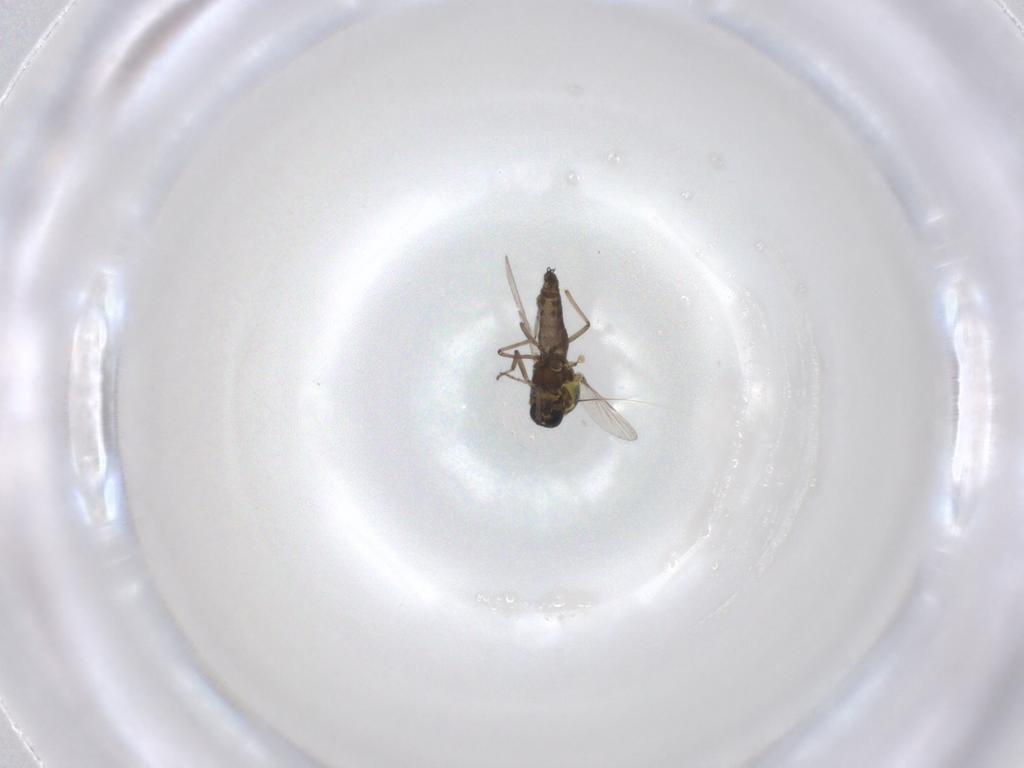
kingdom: Animalia
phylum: Arthropoda
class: Insecta
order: Diptera
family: Ceratopogonidae
